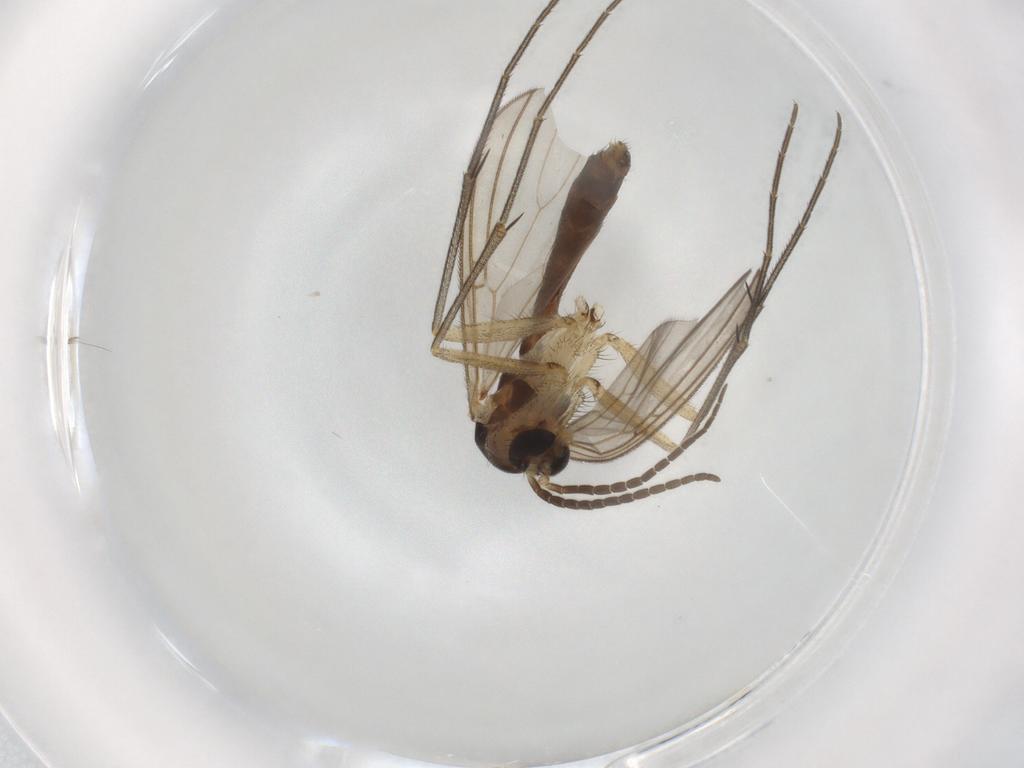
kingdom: Animalia
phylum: Arthropoda
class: Insecta
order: Diptera
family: Mycetophilidae
